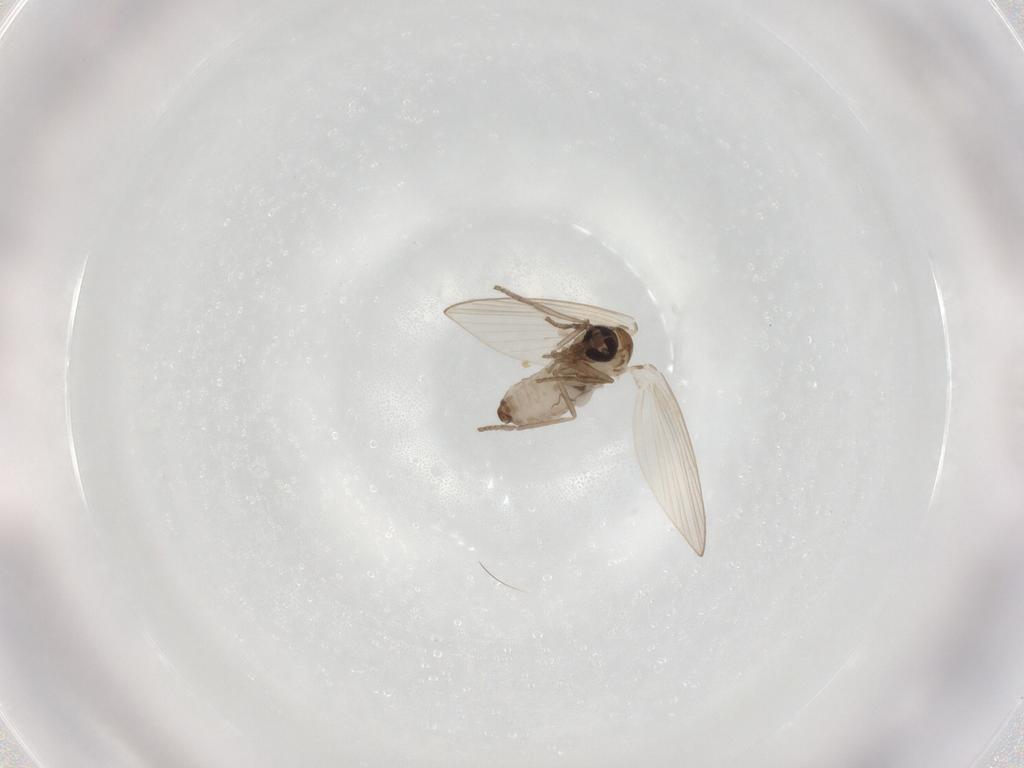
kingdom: Animalia
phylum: Arthropoda
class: Insecta
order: Diptera
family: Psychodidae
